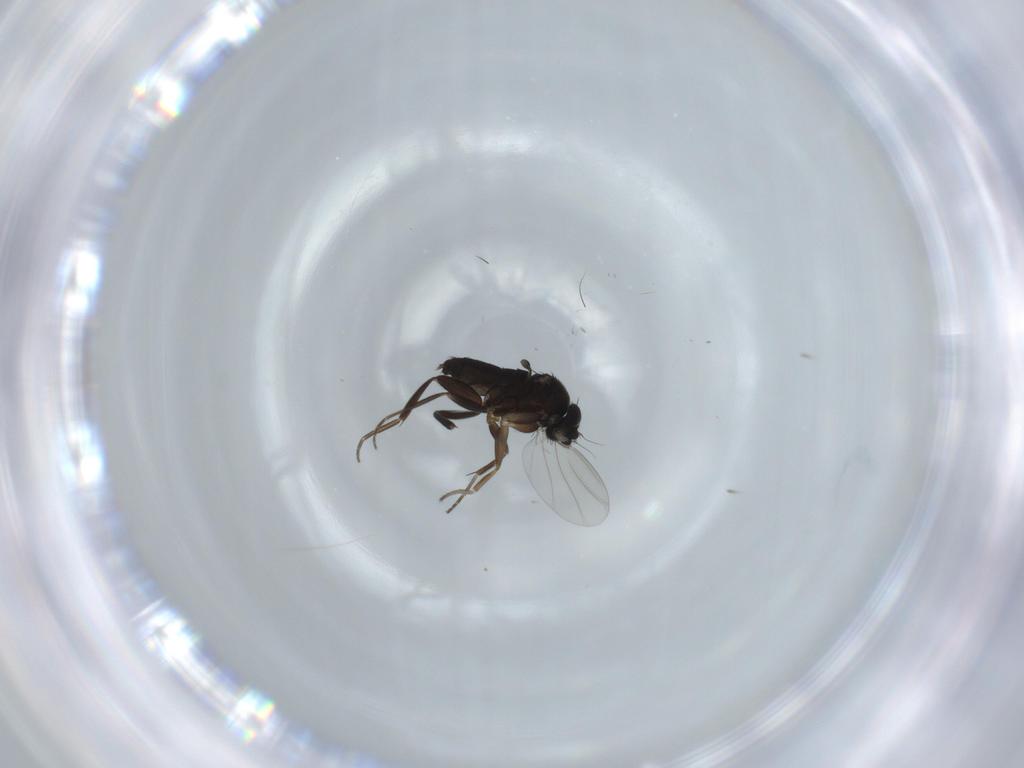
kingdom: Animalia
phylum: Arthropoda
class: Insecta
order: Diptera
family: Phoridae
